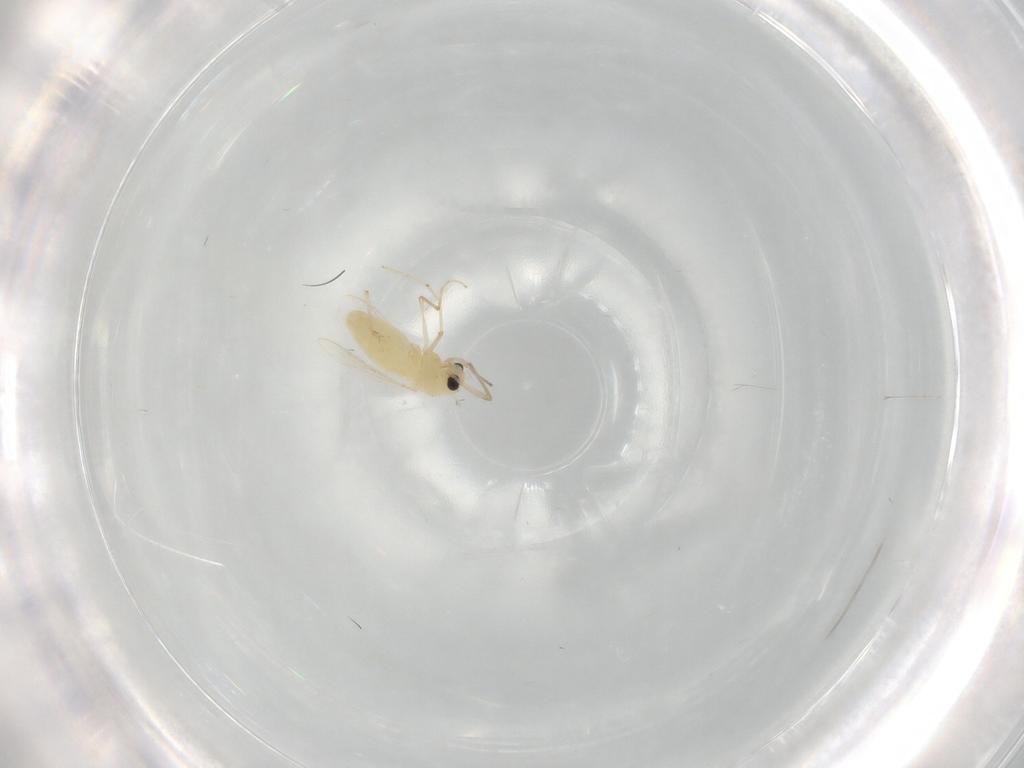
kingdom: Animalia
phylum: Arthropoda
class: Insecta
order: Diptera
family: Chironomidae
